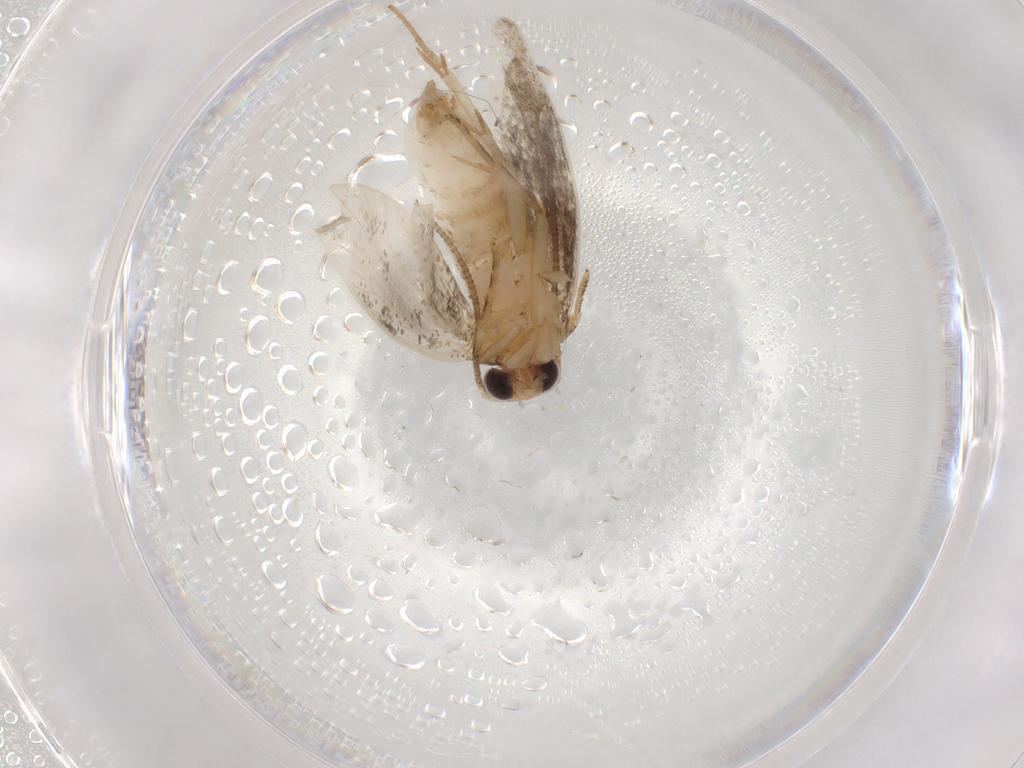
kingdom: Animalia
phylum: Arthropoda
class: Insecta
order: Lepidoptera
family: Tineidae
